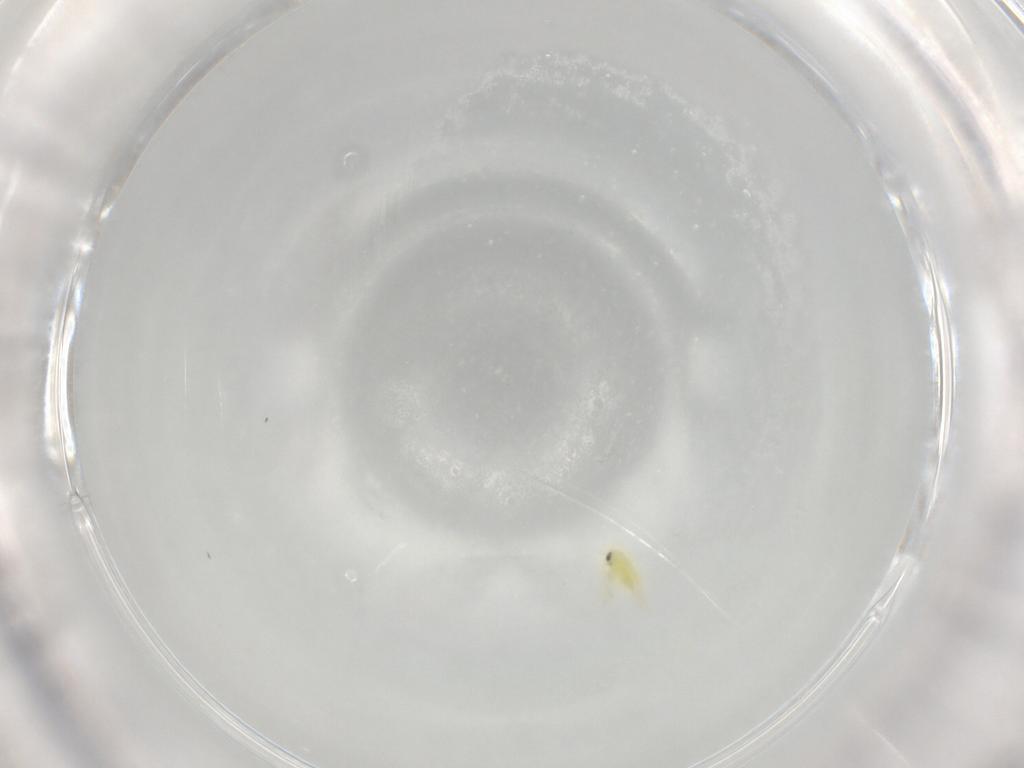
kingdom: Animalia
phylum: Arthropoda
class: Insecta
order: Hemiptera
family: Aleyrodidae
